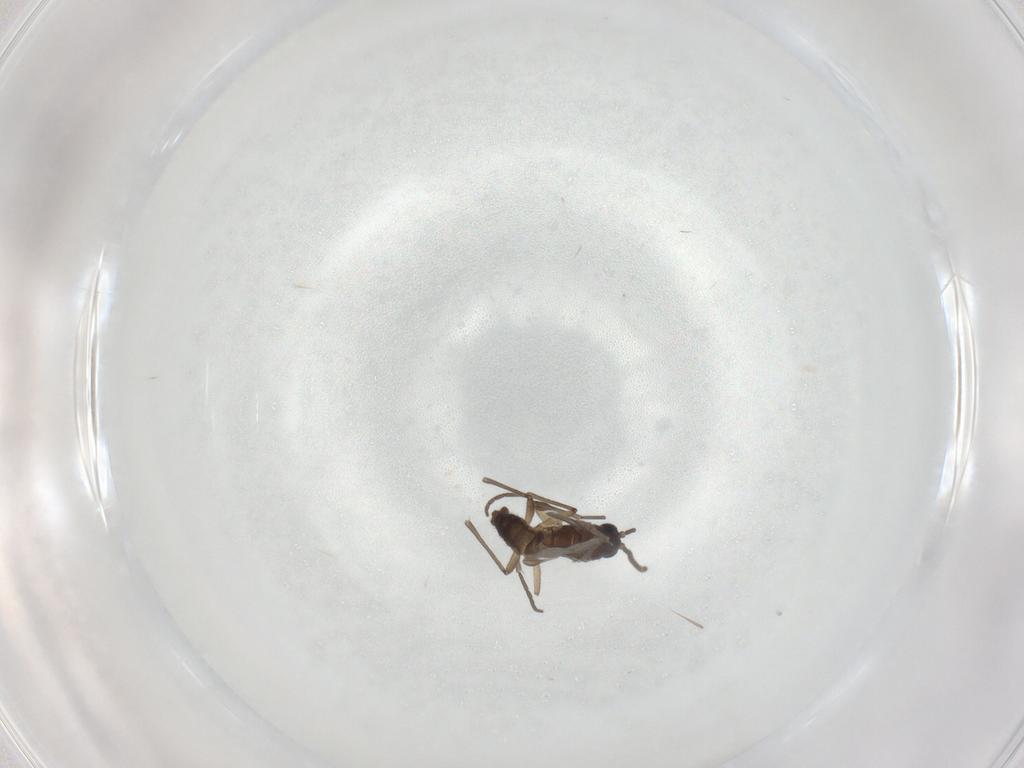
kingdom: Animalia
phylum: Arthropoda
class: Insecta
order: Diptera
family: Sciaridae
